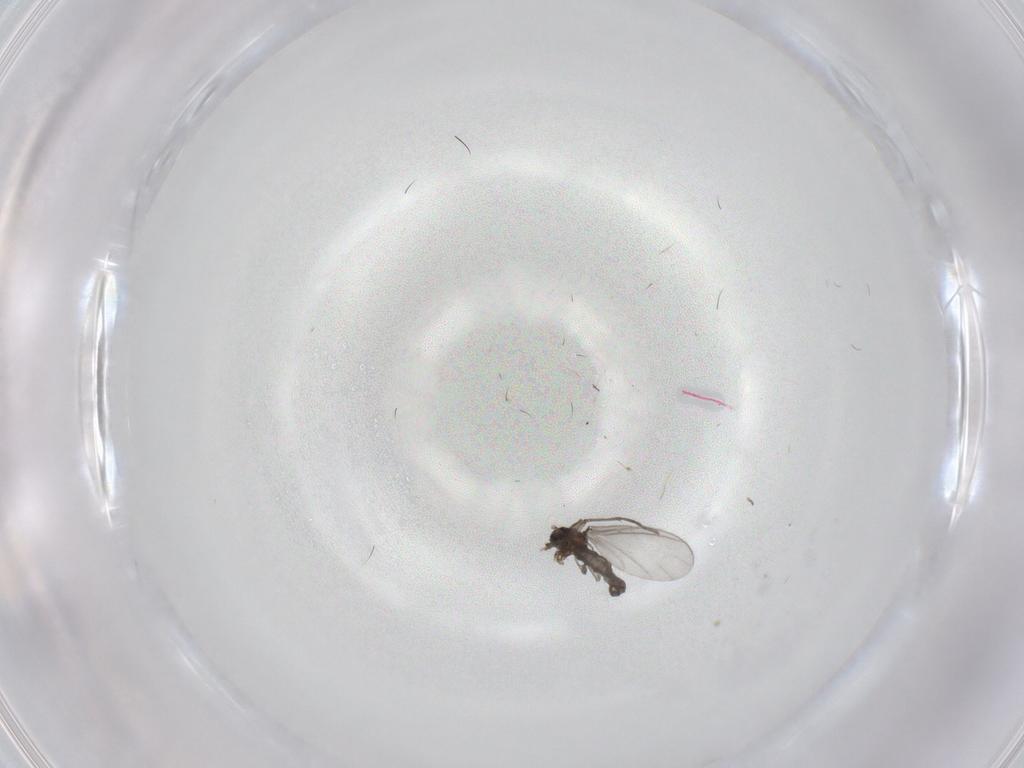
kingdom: Animalia
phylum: Arthropoda
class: Insecta
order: Diptera
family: Sciaridae
